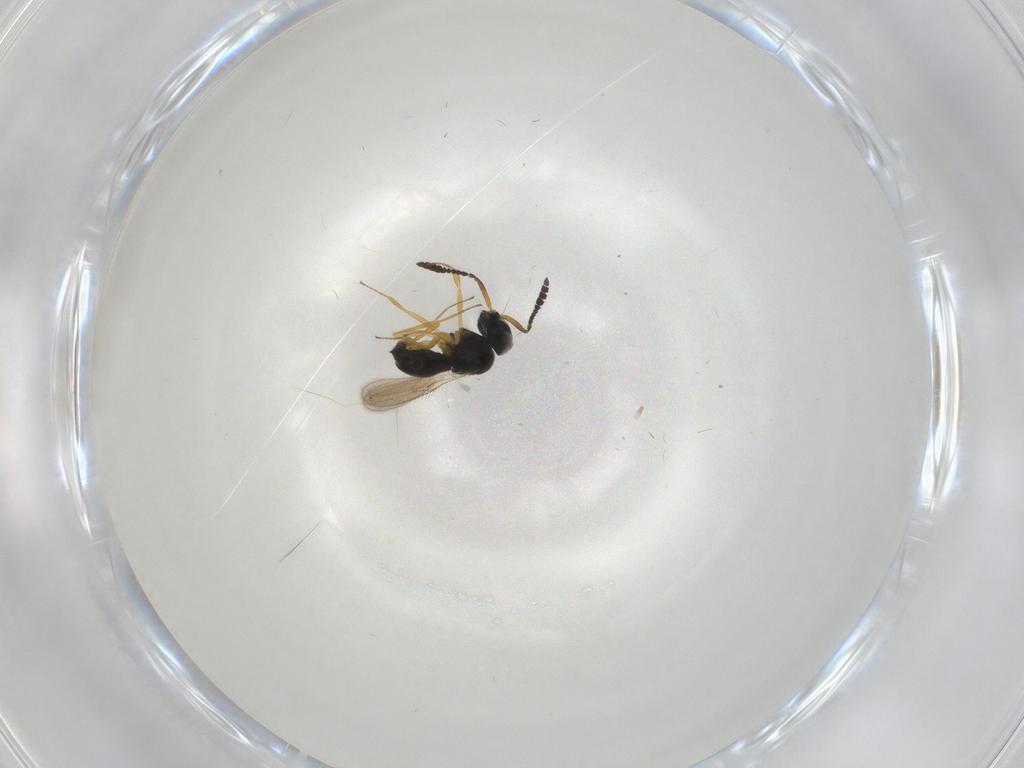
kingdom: Animalia
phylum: Arthropoda
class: Insecta
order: Hymenoptera
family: Scelionidae
